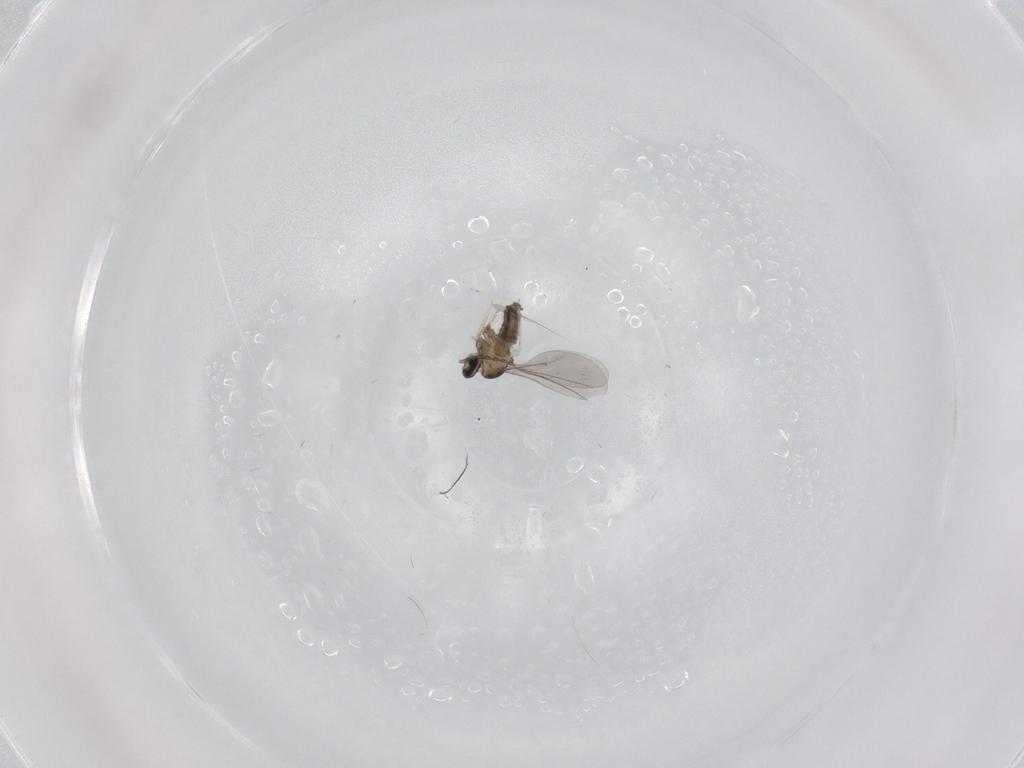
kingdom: Animalia
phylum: Arthropoda
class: Insecta
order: Diptera
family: Cecidomyiidae
